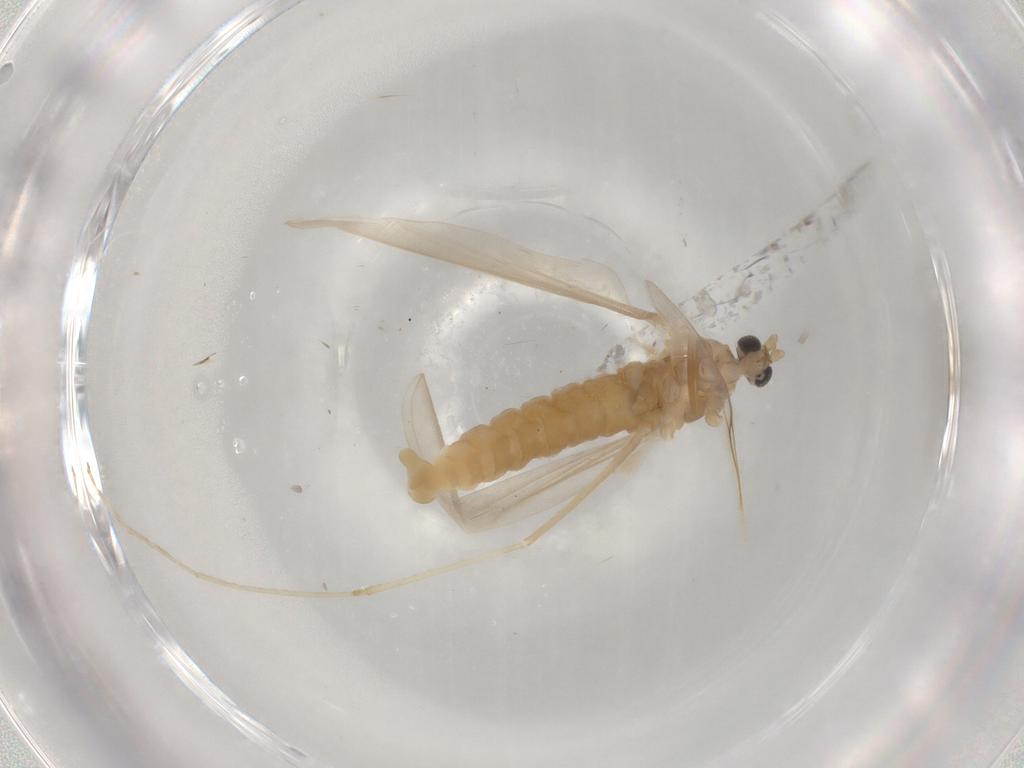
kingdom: Animalia
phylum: Arthropoda
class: Insecta
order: Diptera
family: Cecidomyiidae
